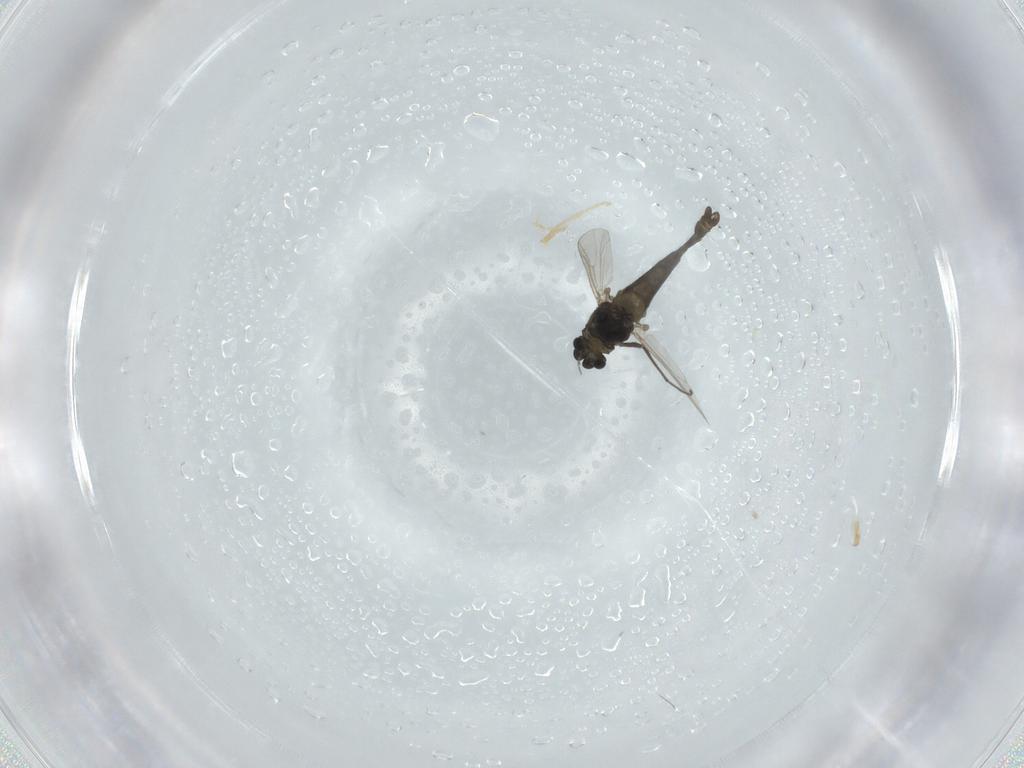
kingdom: Animalia
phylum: Arthropoda
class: Insecta
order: Diptera
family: Chironomidae
